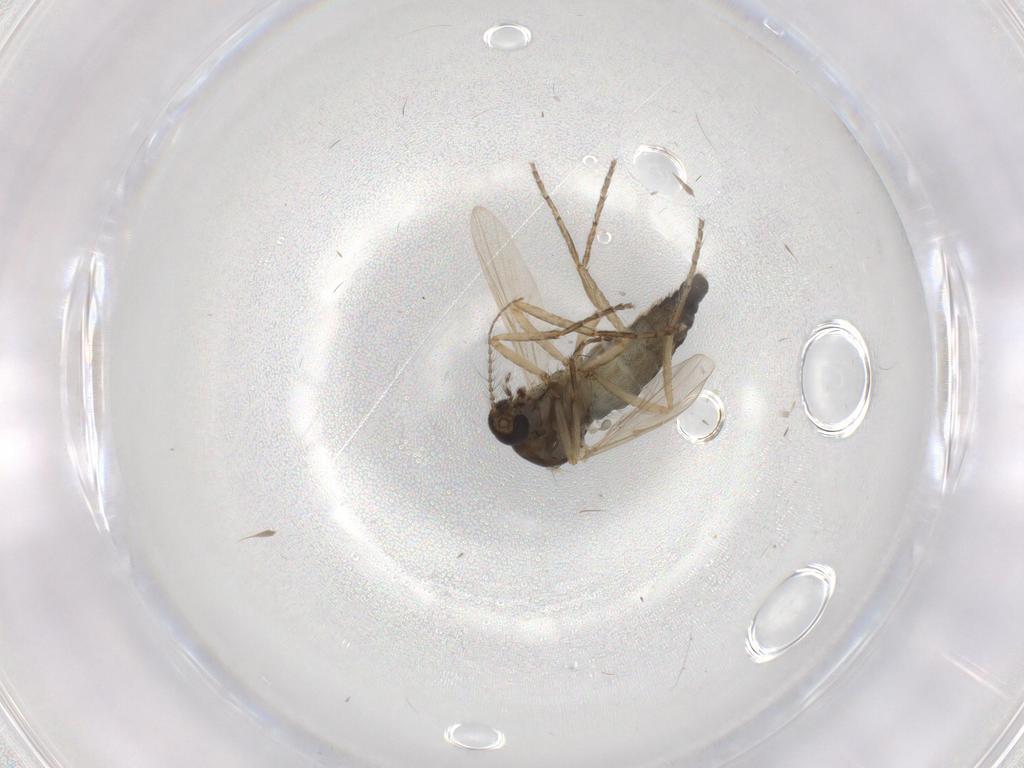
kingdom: Animalia
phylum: Arthropoda
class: Insecta
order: Diptera
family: Ceratopogonidae
